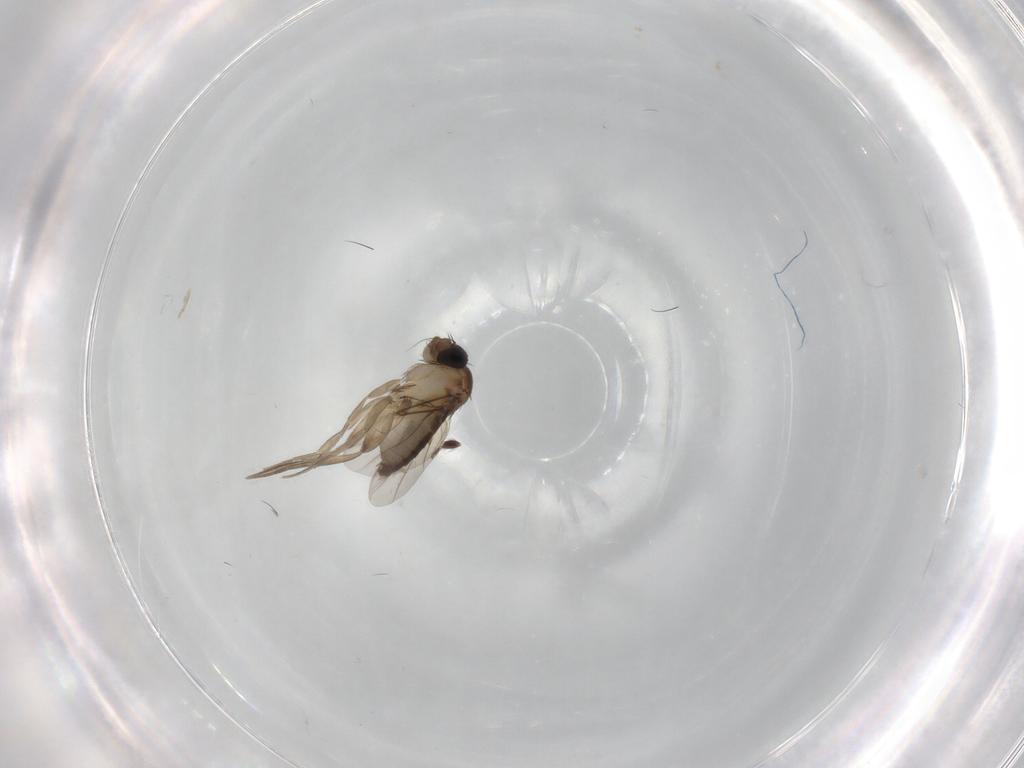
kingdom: Animalia
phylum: Arthropoda
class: Insecta
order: Diptera
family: Phoridae
